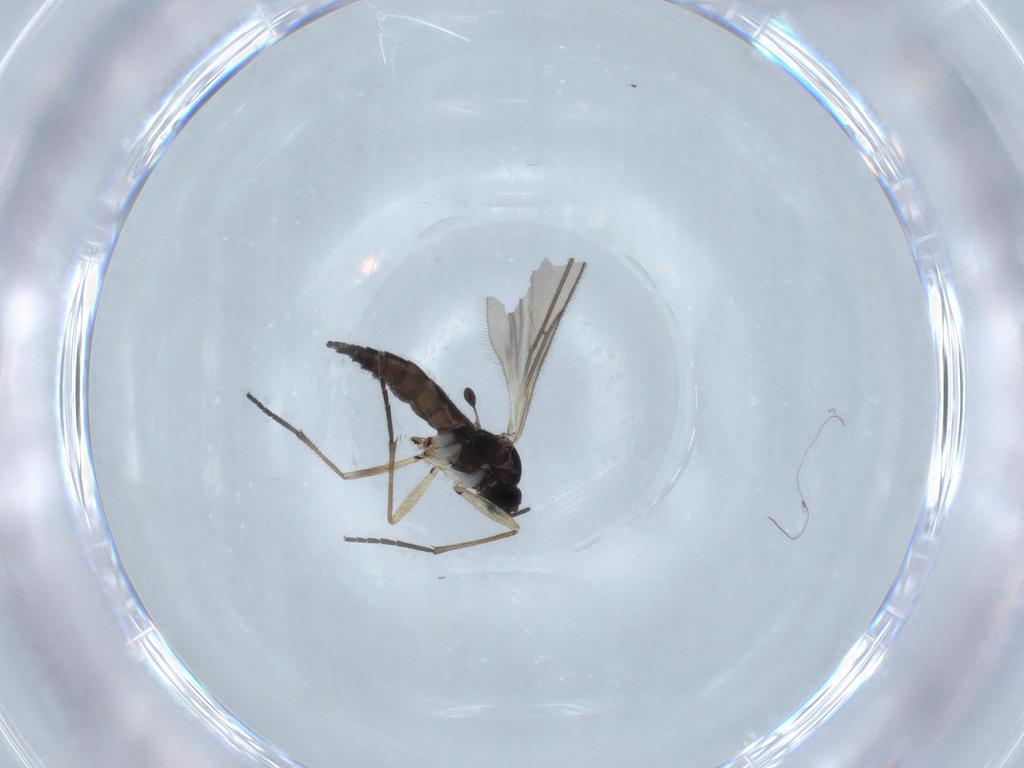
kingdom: Animalia
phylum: Arthropoda
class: Insecta
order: Diptera
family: Sciaridae
